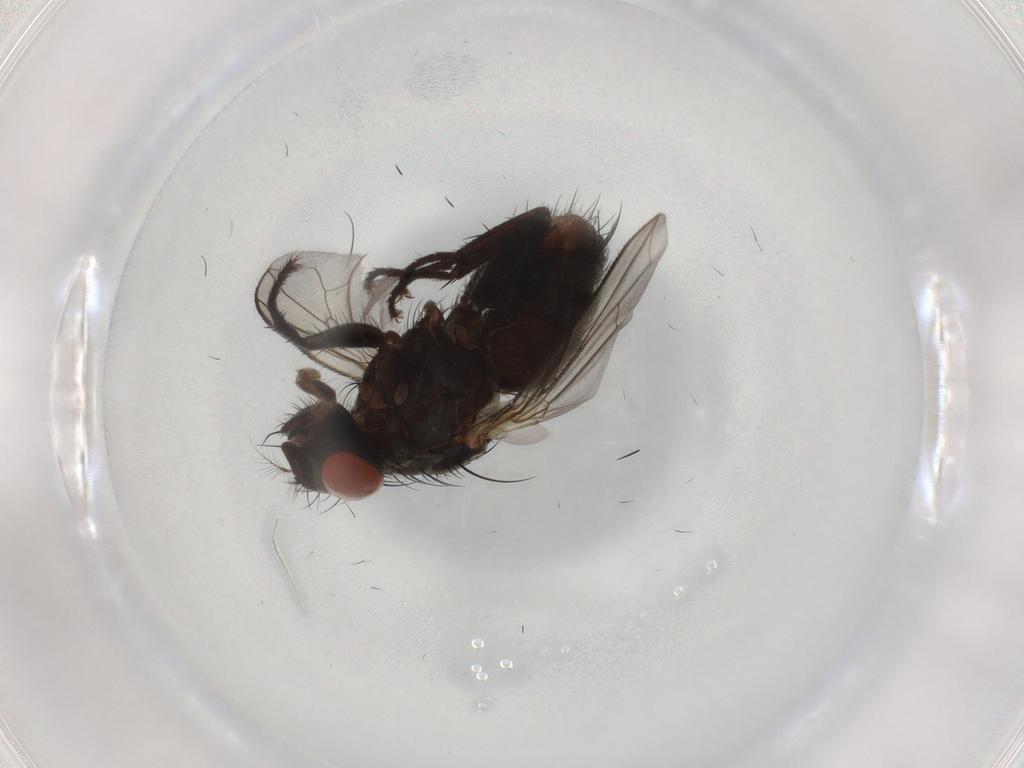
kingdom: Animalia
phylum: Arthropoda
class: Insecta
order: Diptera
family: Sarcophagidae
